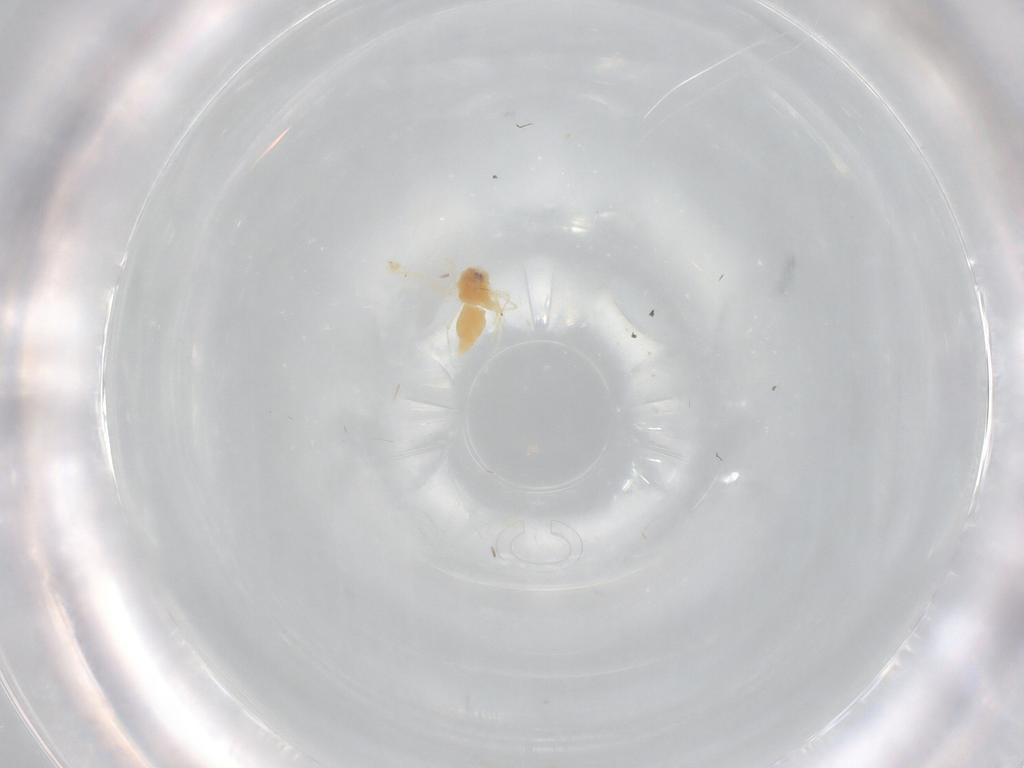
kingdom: Animalia
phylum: Arthropoda
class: Insecta
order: Hemiptera
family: Aleyrodidae
